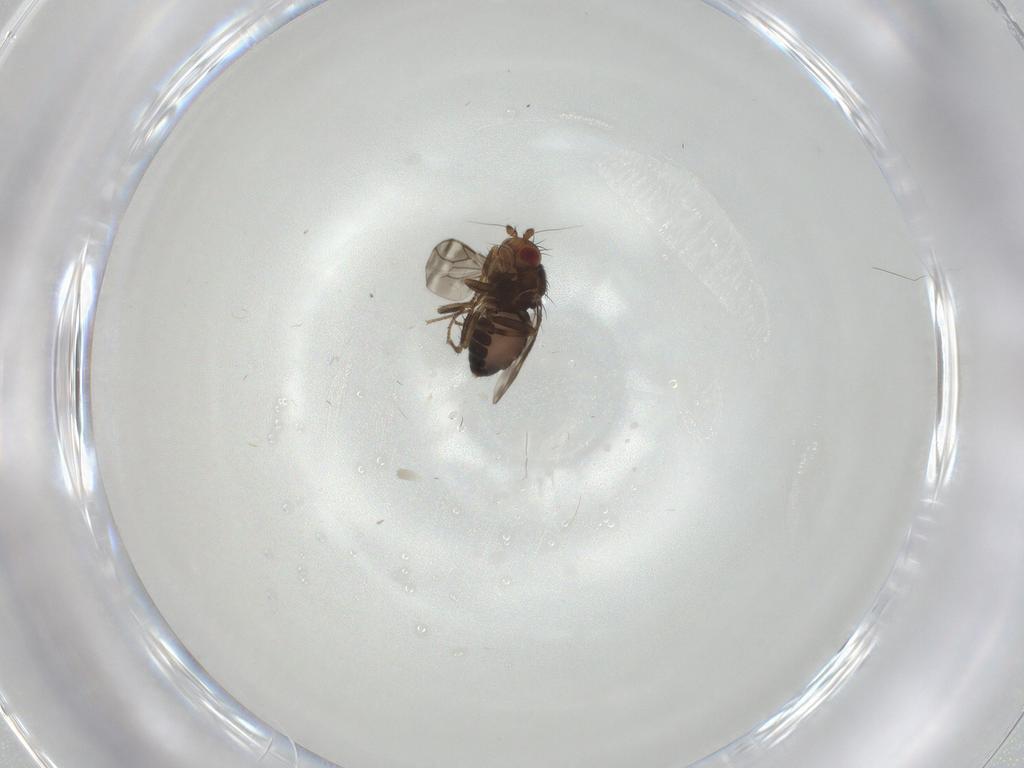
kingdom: Animalia
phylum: Arthropoda
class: Insecta
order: Diptera
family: Sphaeroceridae
